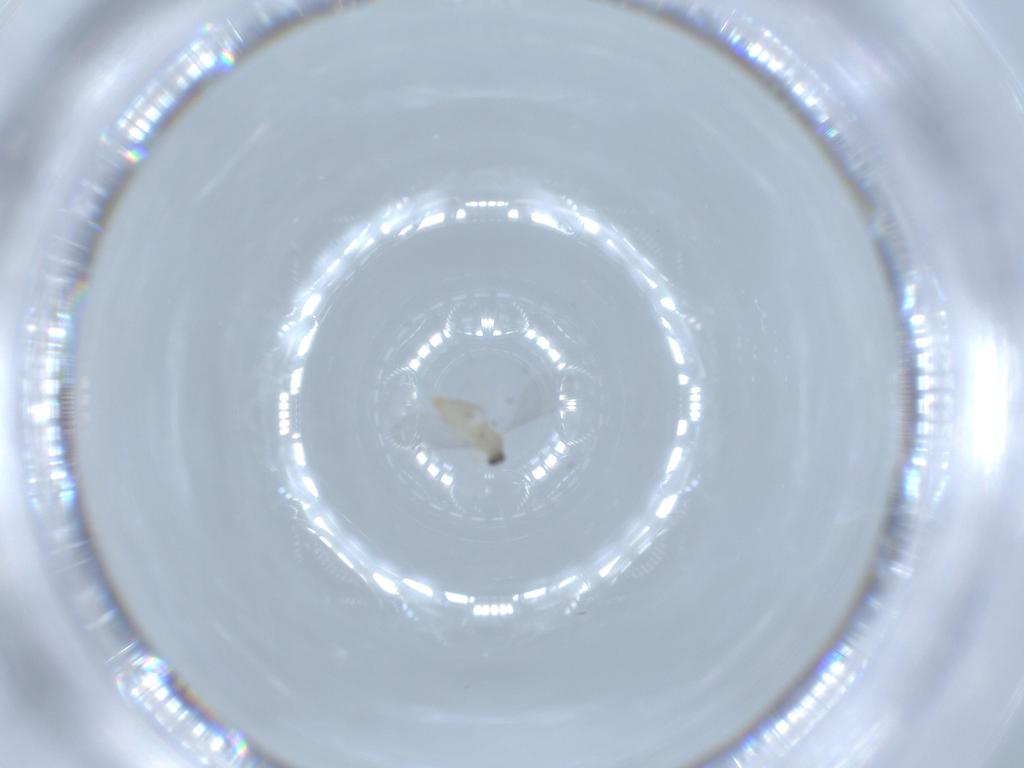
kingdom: Animalia
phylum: Arthropoda
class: Insecta
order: Diptera
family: Cecidomyiidae
